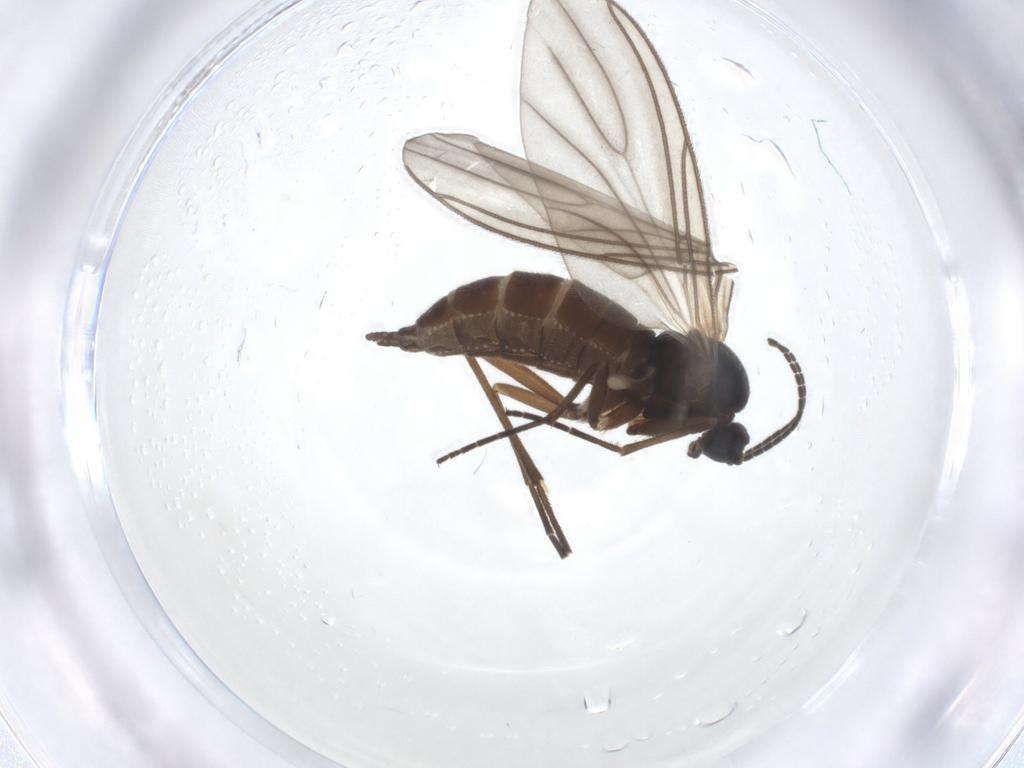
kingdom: Animalia
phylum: Arthropoda
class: Insecta
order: Diptera
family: Sciaridae
